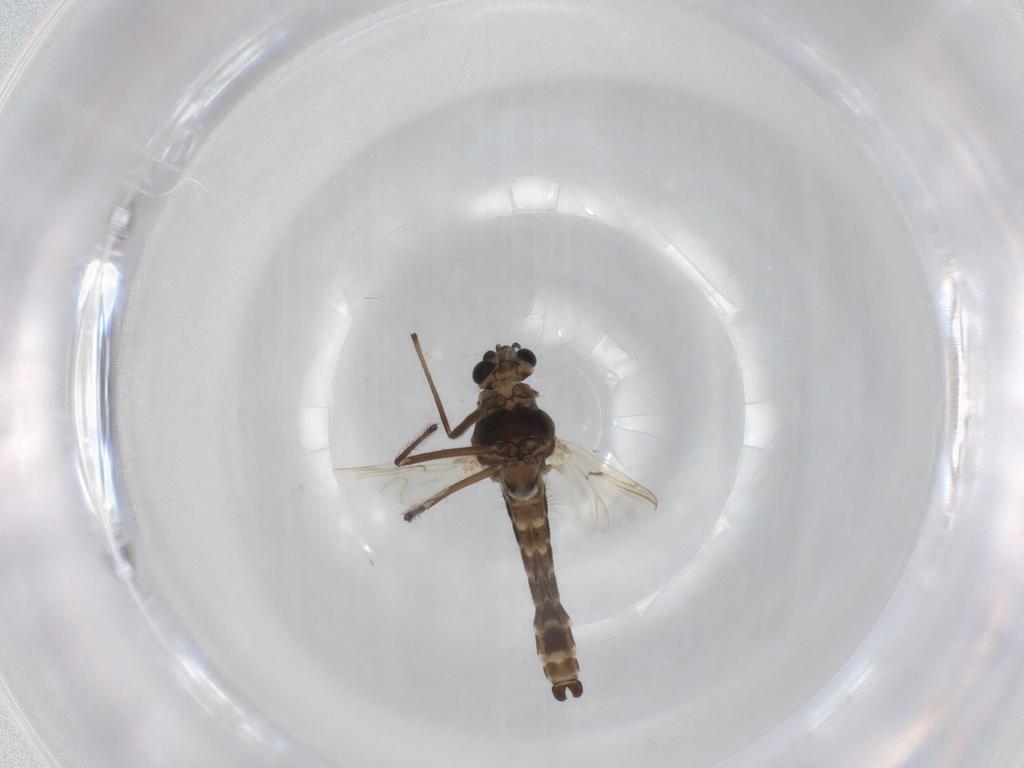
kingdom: Animalia
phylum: Arthropoda
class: Insecta
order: Diptera
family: Chironomidae
